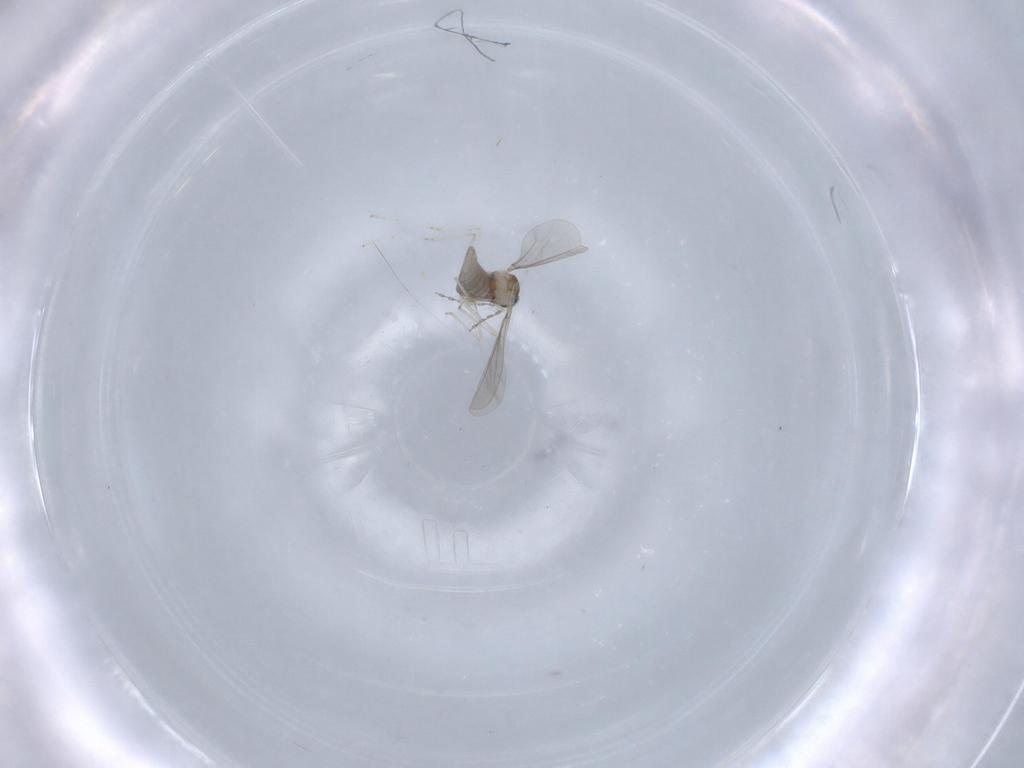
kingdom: Animalia
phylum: Arthropoda
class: Insecta
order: Diptera
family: Cecidomyiidae
